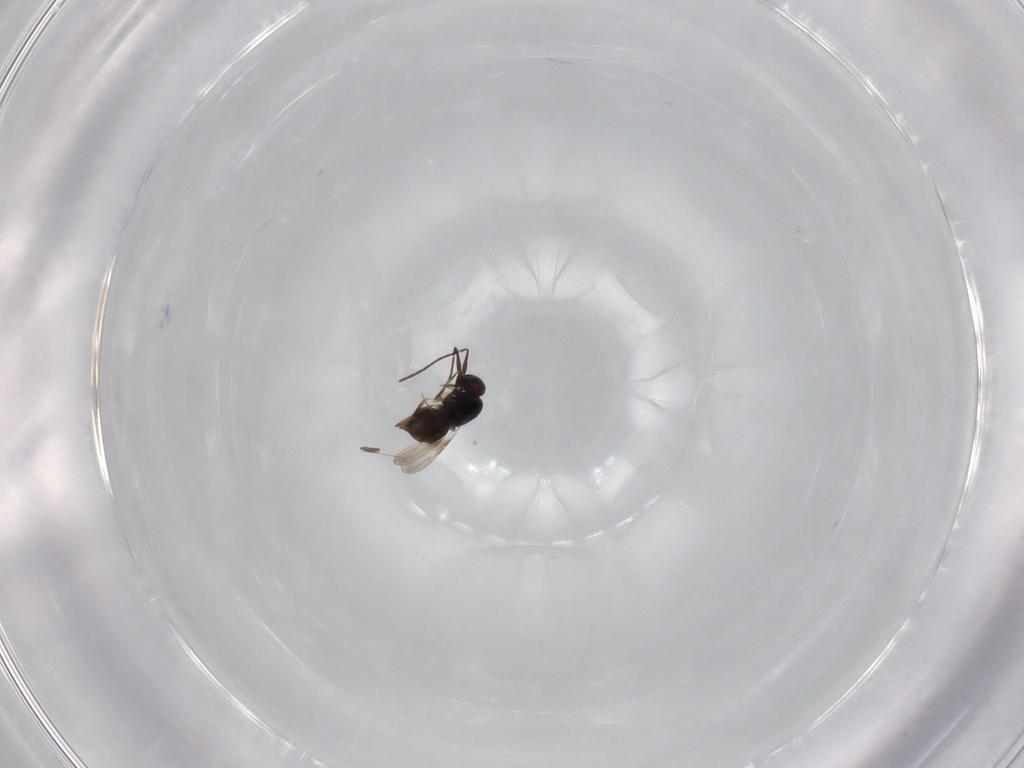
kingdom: Animalia
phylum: Arthropoda
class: Insecta
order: Hymenoptera
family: Ceraphronidae
